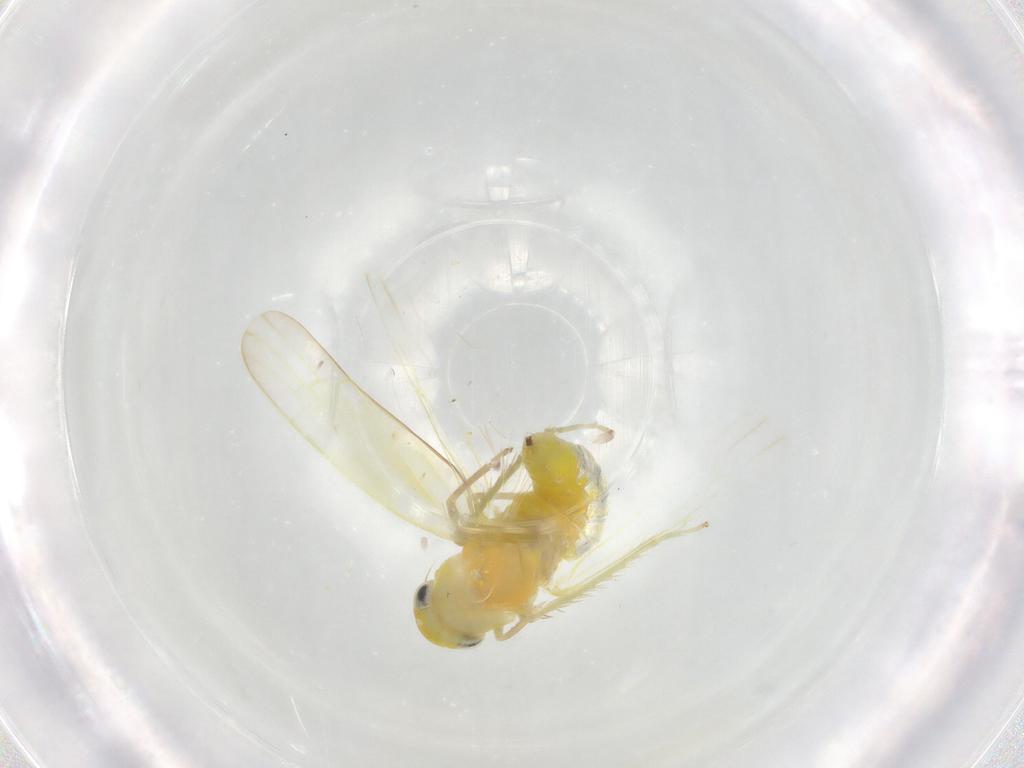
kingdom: Animalia
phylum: Arthropoda
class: Insecta
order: Hemiptera
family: Cicadellidae
